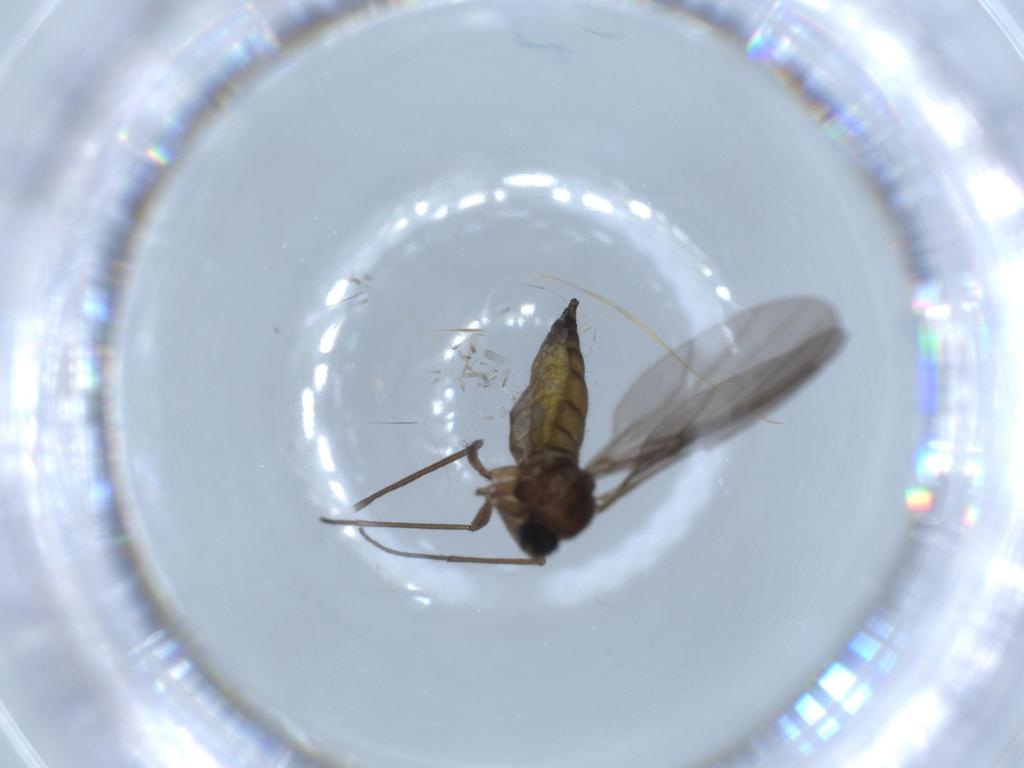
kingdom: Animalia
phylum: Arthropoda
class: Insecta
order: Diptera
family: Sciaridae
